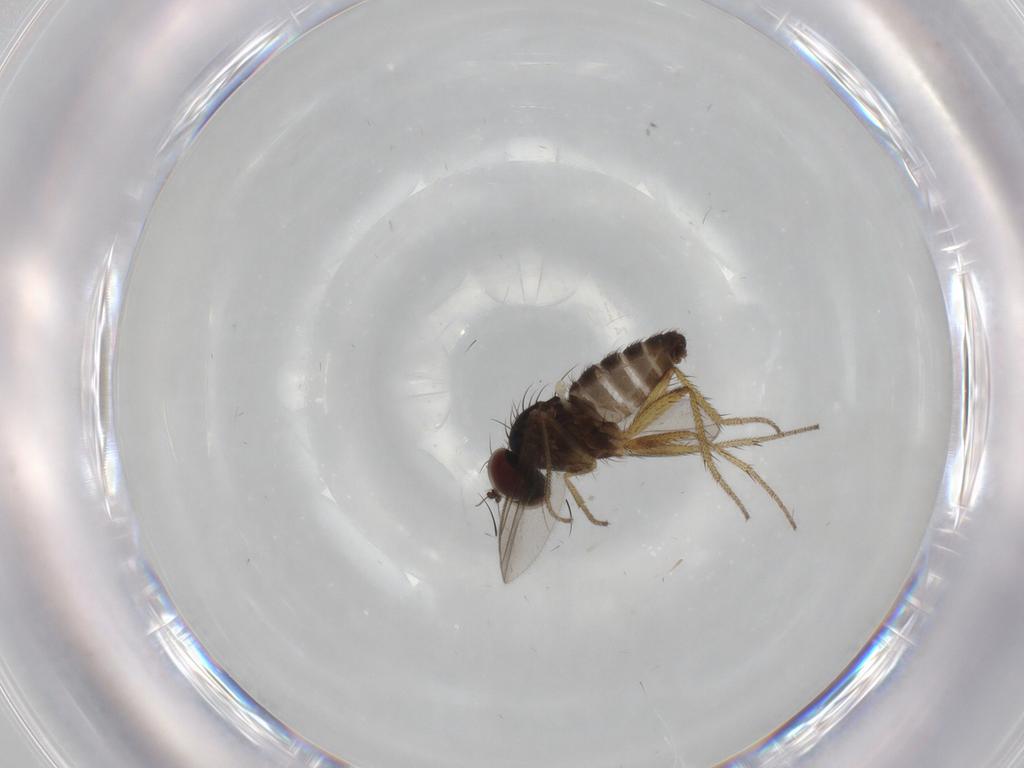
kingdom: Animalia
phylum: Arthropoda
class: Insecta
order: Diptera
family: Dolichopodidae
